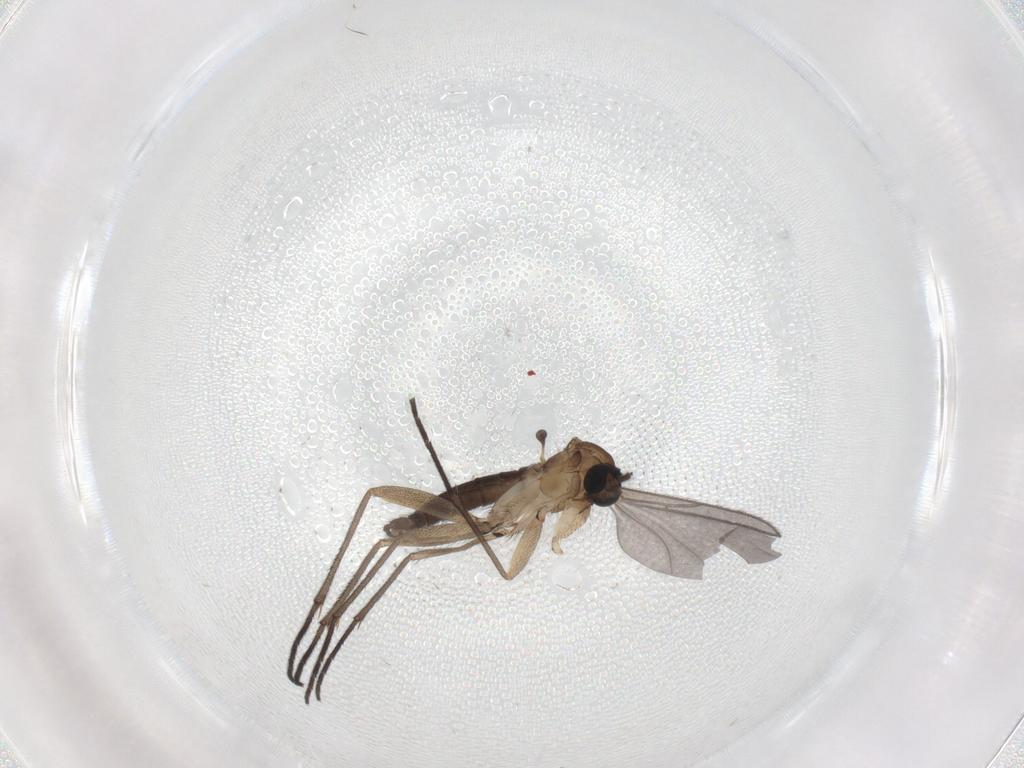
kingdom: Animalia
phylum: Arthropoda
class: Insecta
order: Diptera
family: Sciaridae
